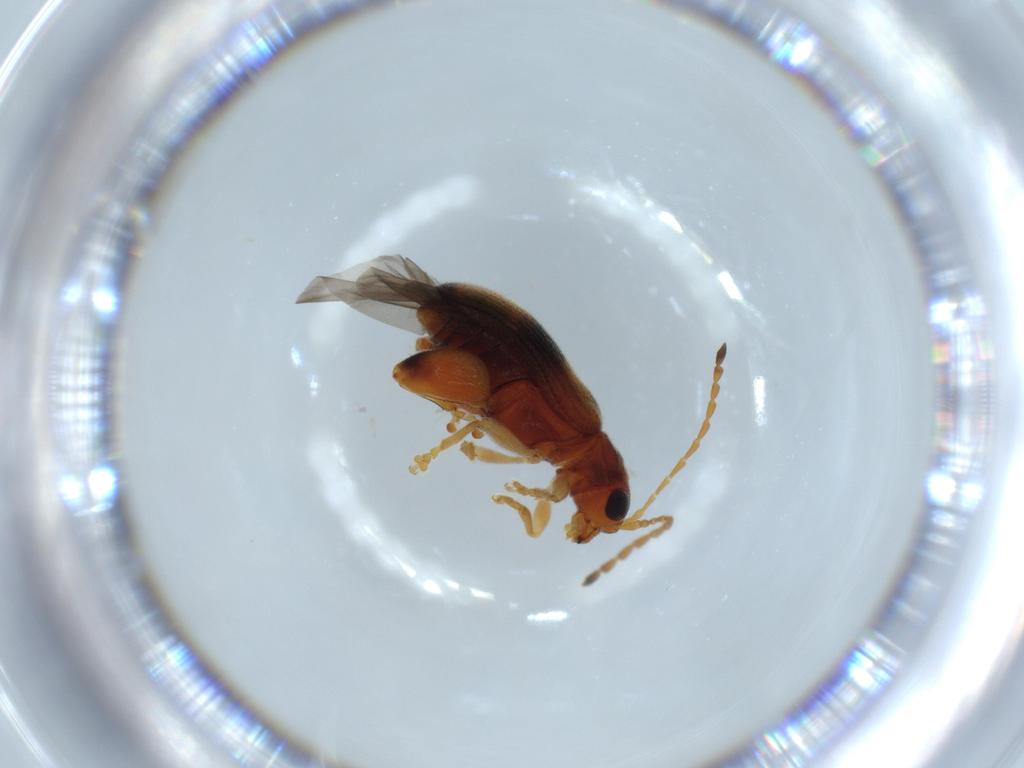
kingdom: Animalia
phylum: Arthropoda
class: Insecta
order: Coleoptera
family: Chrysomelidae
